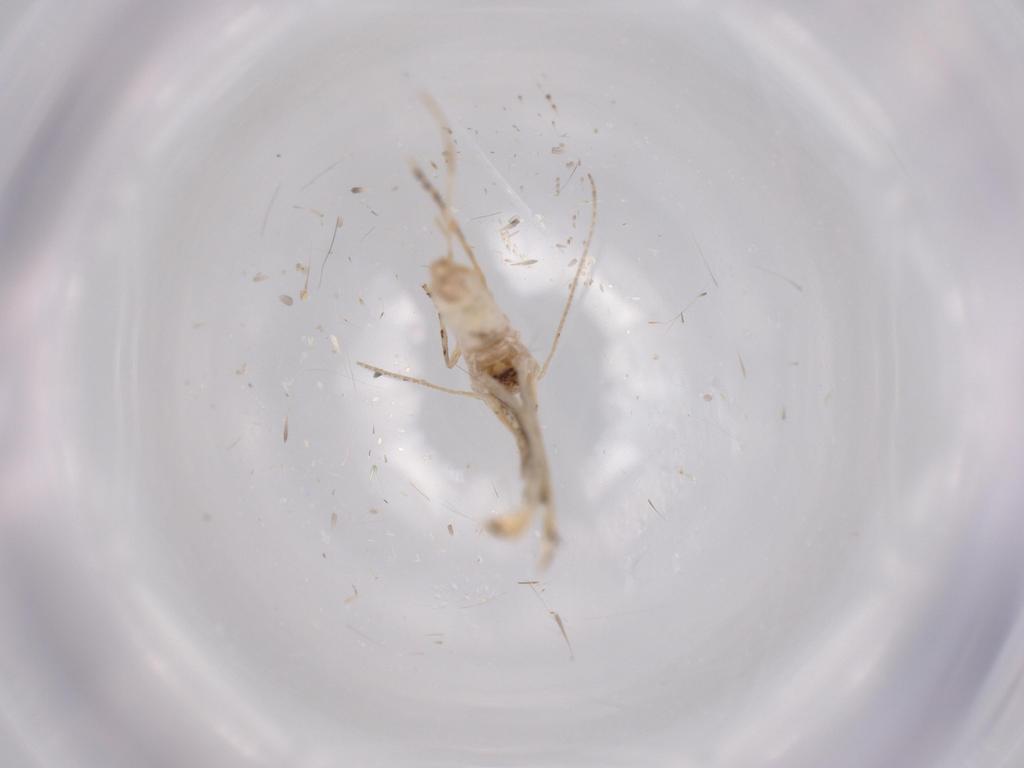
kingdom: Animalia
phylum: Arthropoda
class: Insecta
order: Lepidoptera
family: Bucculatricidae
